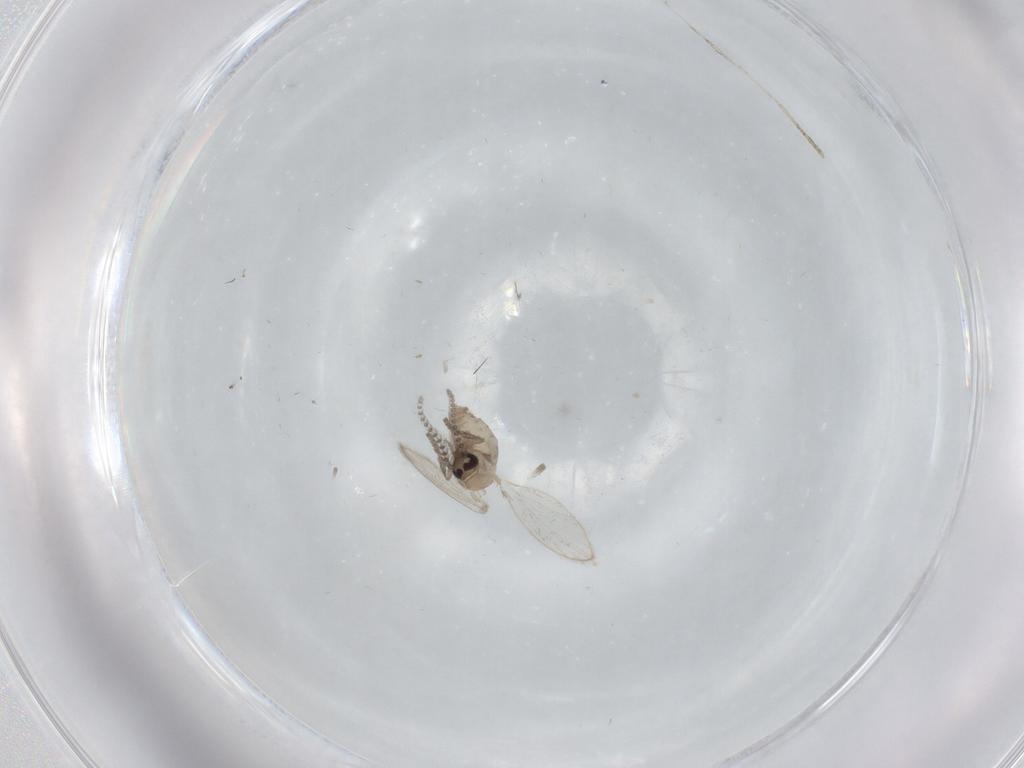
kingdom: Animalia
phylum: Arthropoda
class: Insecta
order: Diptera
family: Psychodidae
